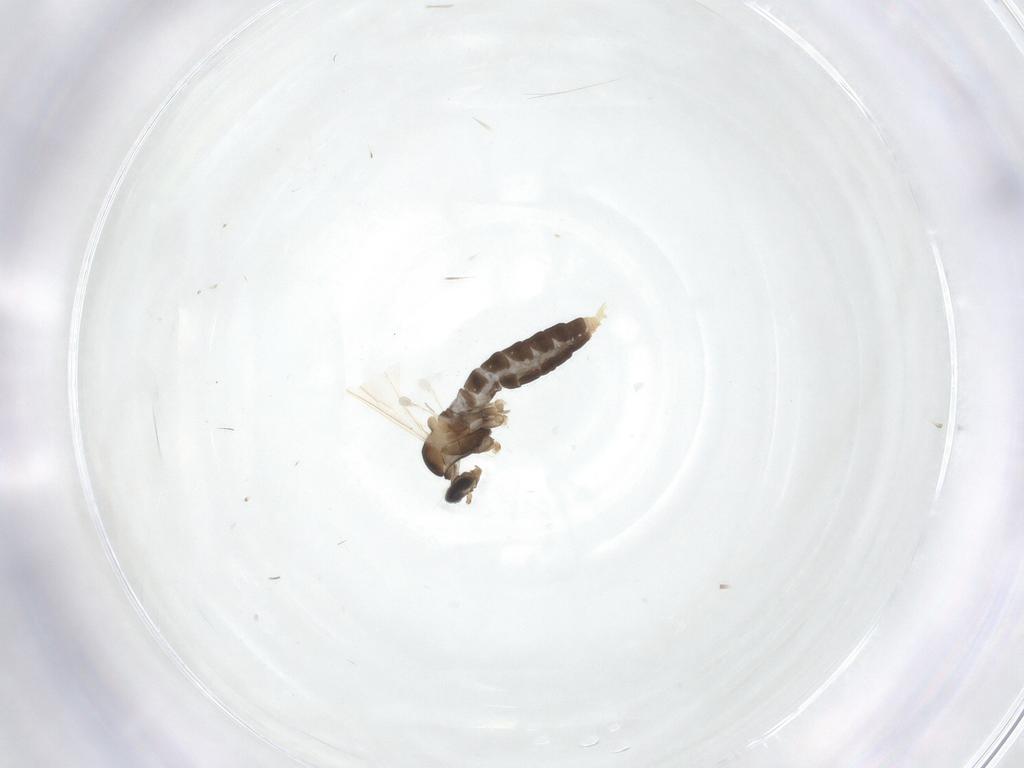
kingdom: Animalia
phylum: Arthropoda
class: Insecta
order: Diptera
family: Cecidomyiidae
